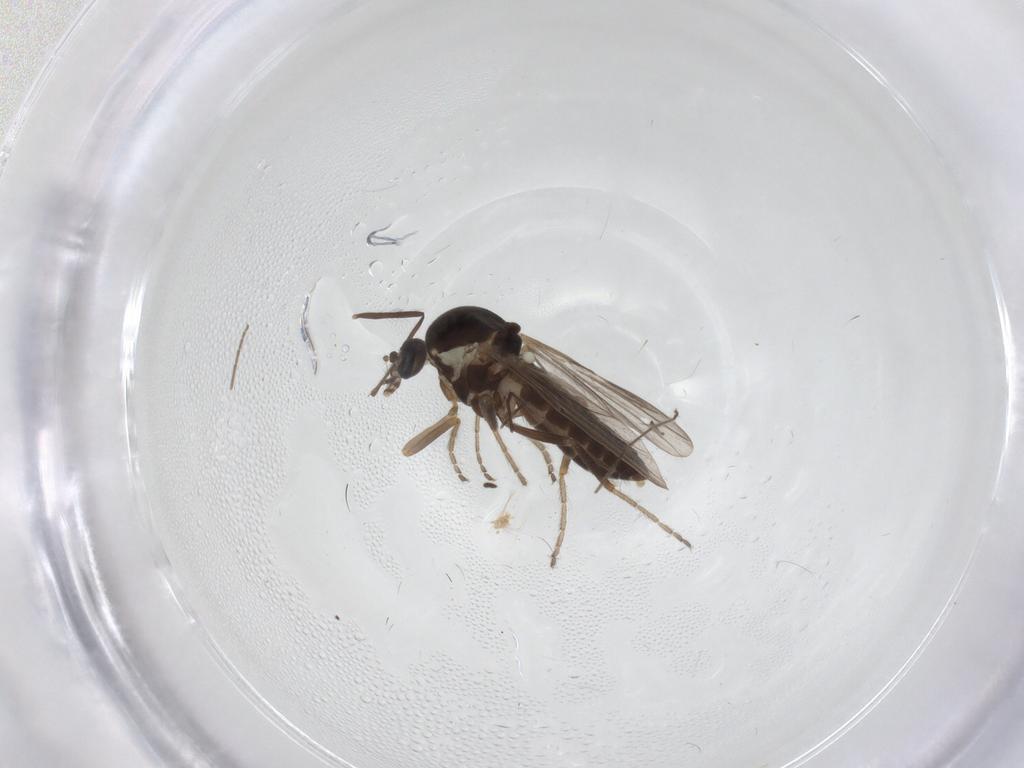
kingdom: Animalia
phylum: Arthropoda
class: Insecta
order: Diptera
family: Ceratopogonidae
